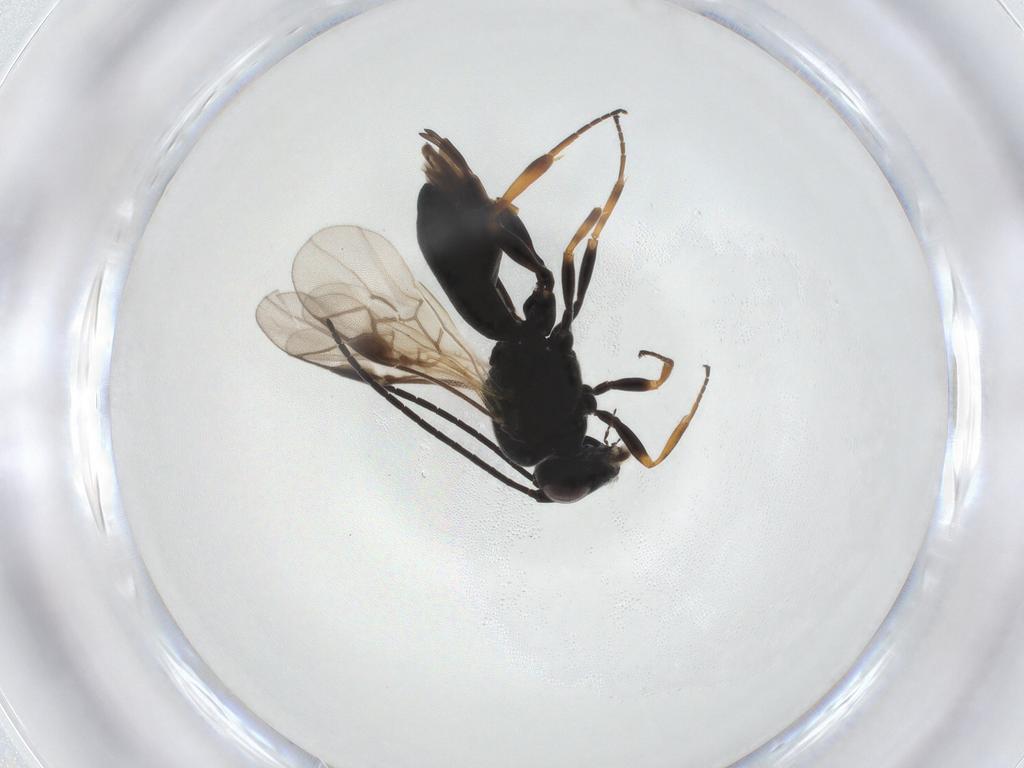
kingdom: Animalia
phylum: Arthropoda
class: Insecta
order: Hymenoptera
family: Braconidae
